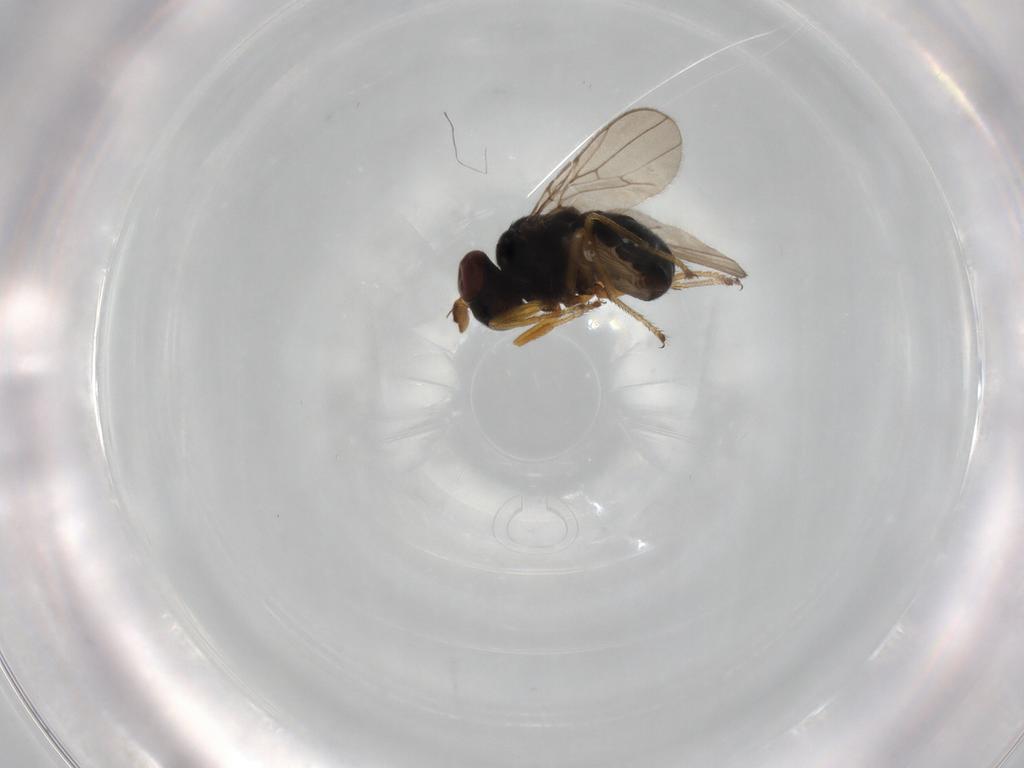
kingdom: Animalia
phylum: Arthropoda
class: Insecta
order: Diptera
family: Ephydridae
